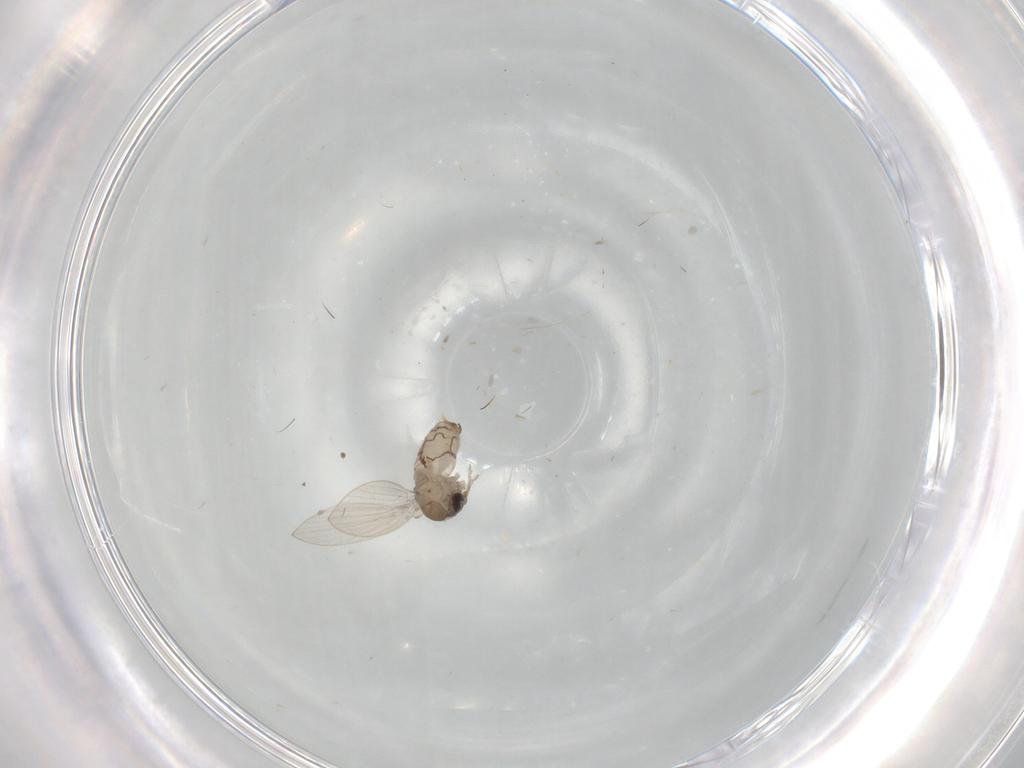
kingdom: Animalia
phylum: Arthropoda
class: Insecta
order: Diptera
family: Psychodidae
